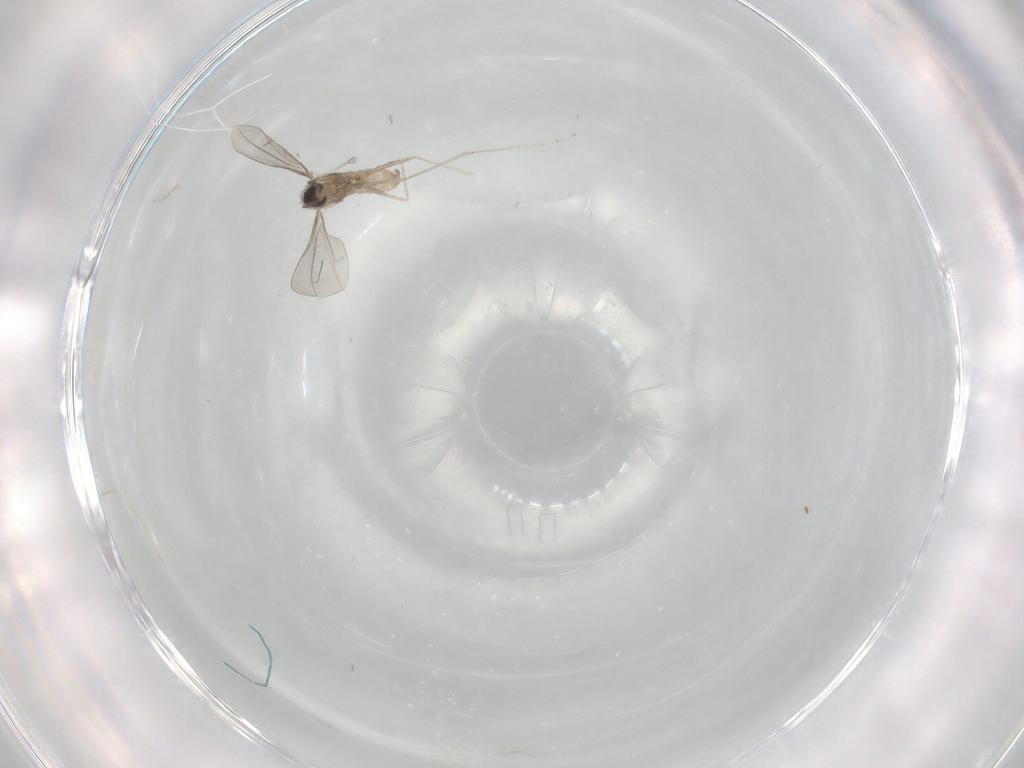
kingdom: Animalia
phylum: Arthropoda
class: Insecta
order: Diptera
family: Cecidomyiidae
